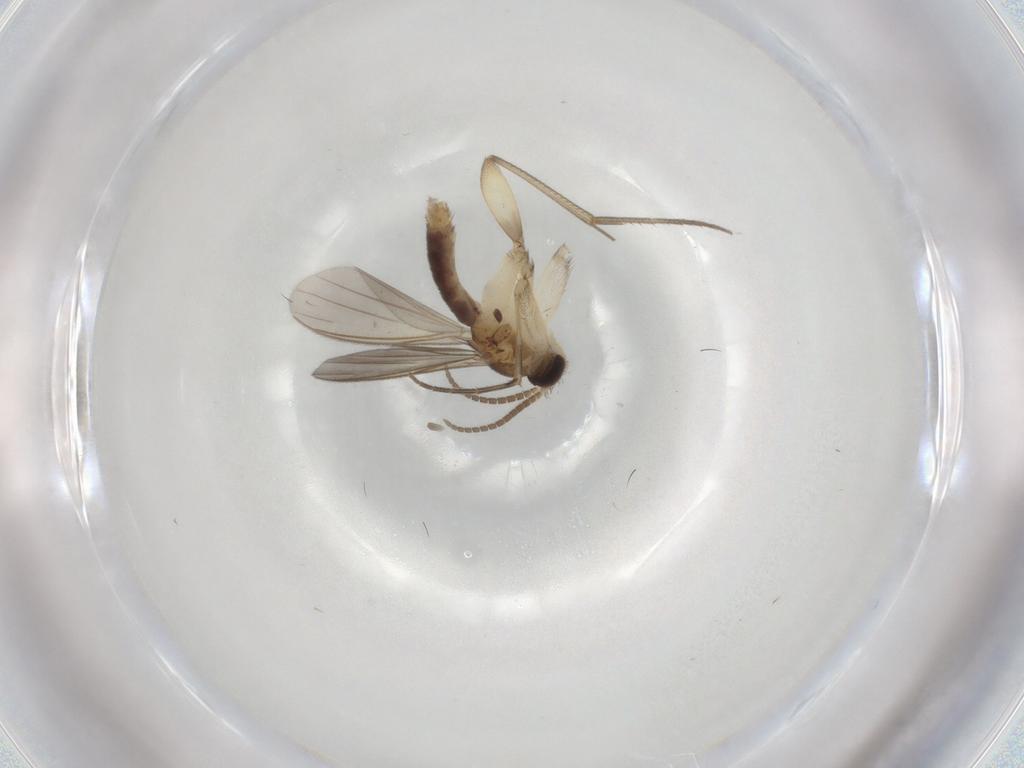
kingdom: Animalia
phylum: Arthropoda
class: Insecta
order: Diptera
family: Mycetophilidae
